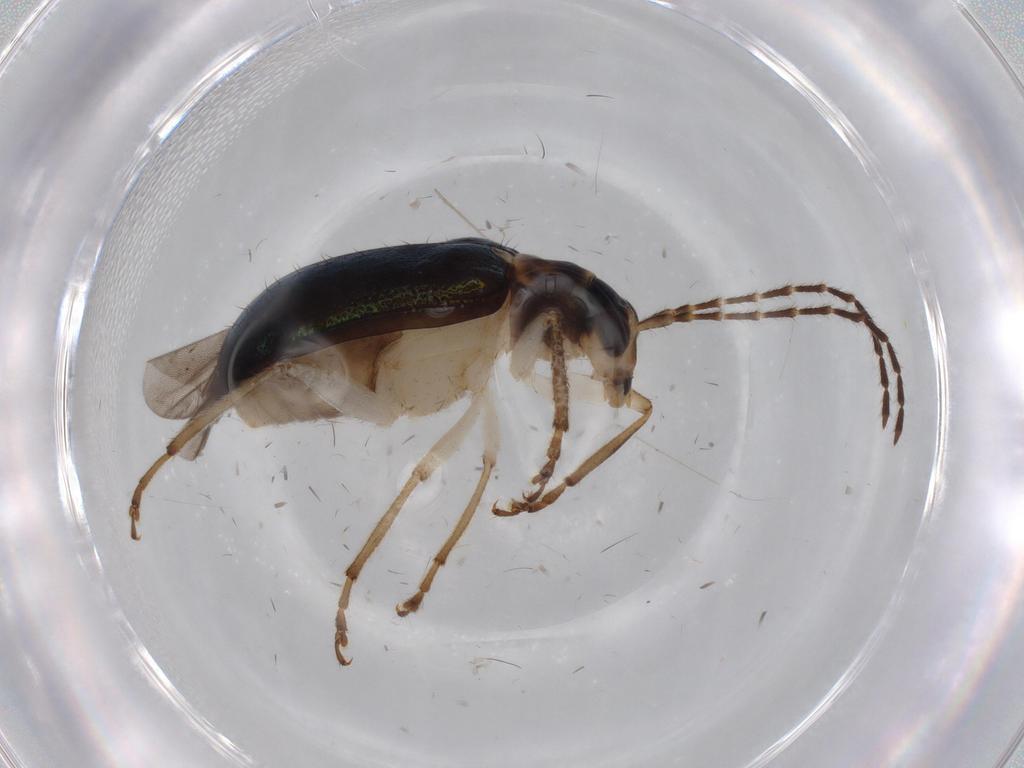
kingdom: Animalia
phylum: Arthropoda
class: Insecta
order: Coleoptera
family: Chrysomelidae
